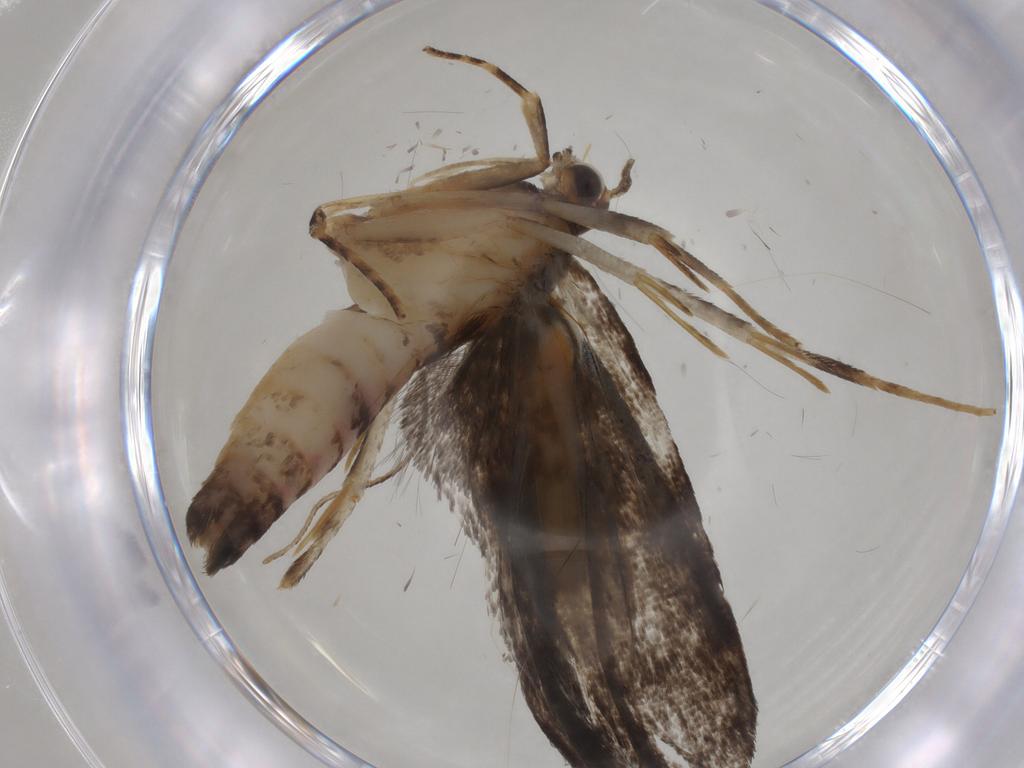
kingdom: Animalia
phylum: Arthropoda
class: Insecta
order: Lepidoptera
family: Gelechiidae
